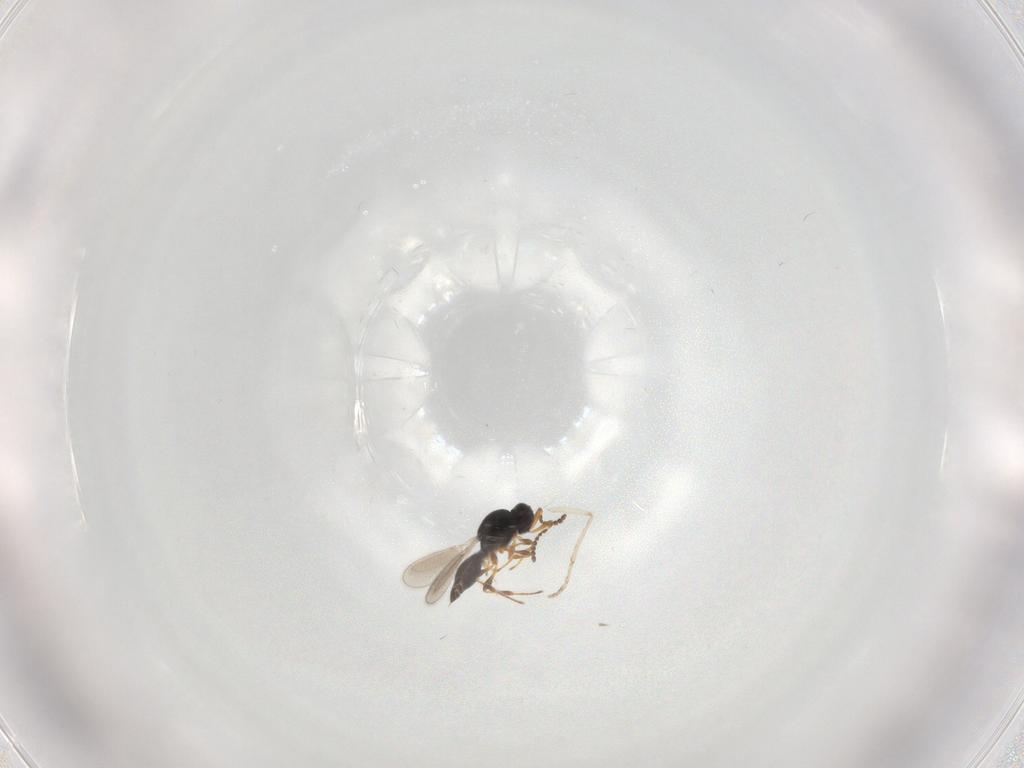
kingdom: Animalia
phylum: Arthropoda
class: Insecta
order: Hymenoptera
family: Platygastridae
